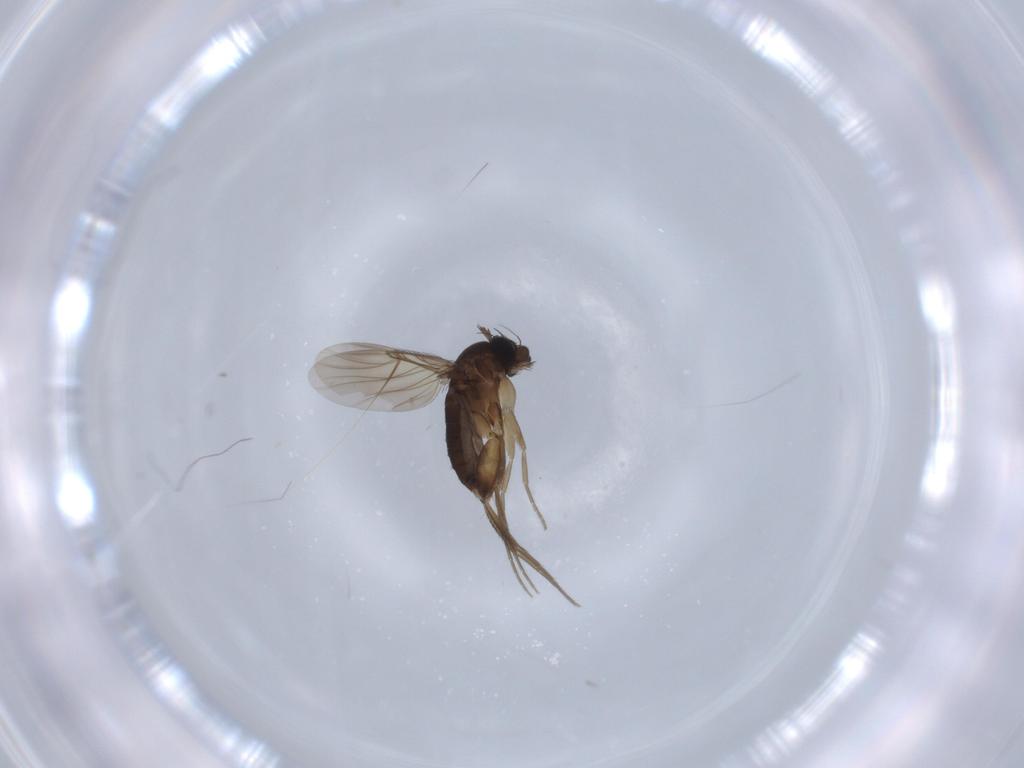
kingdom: Animalia
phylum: Arthropoda
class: Insecta
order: Diptera
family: Phoridae
